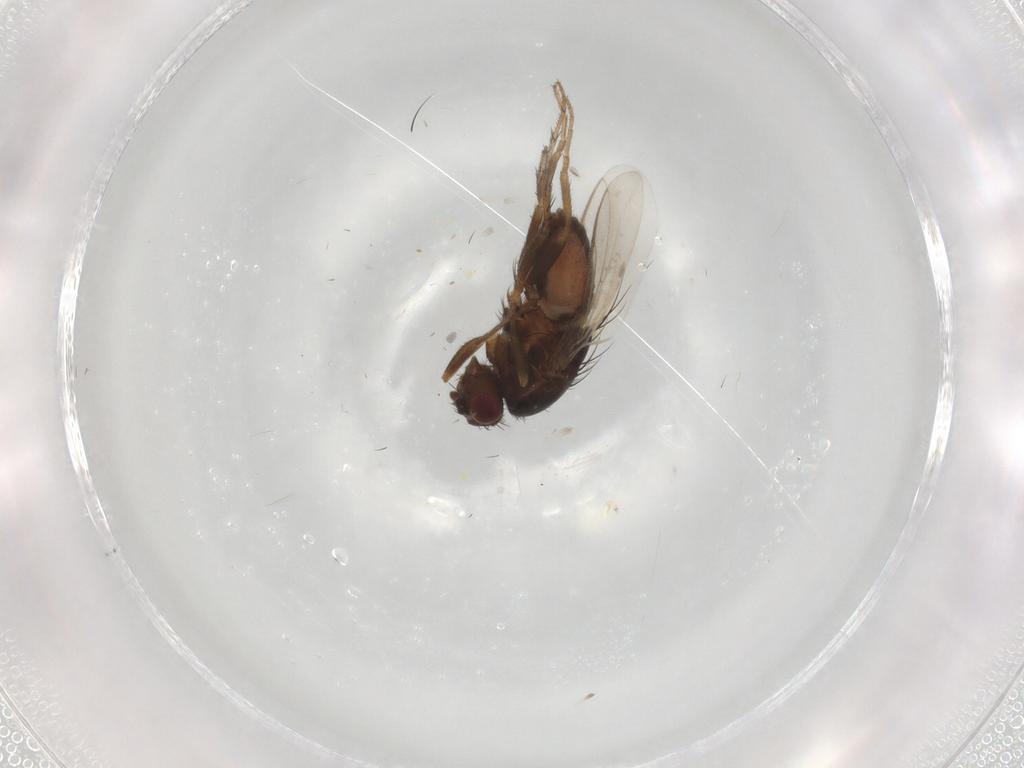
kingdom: Animalia
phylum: Arthropoda
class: Insecta
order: Diptera
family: Sphaeroceridae
